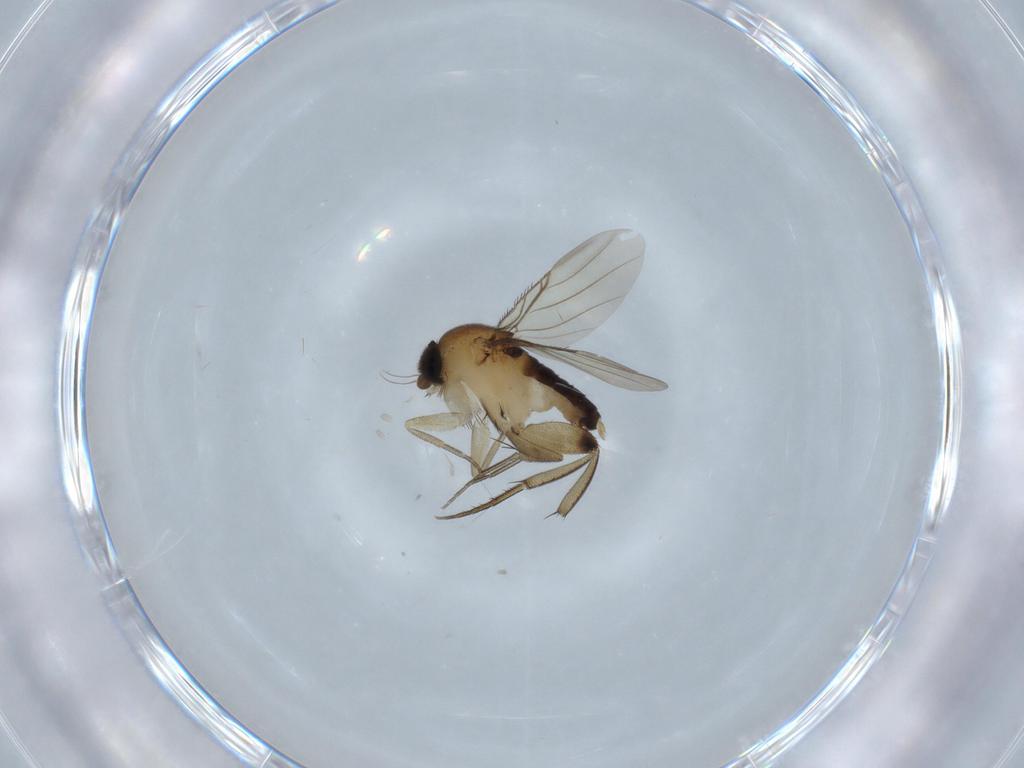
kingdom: Animalia
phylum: Arthropoda
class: Insecta
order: Diptera
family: Phoridae
